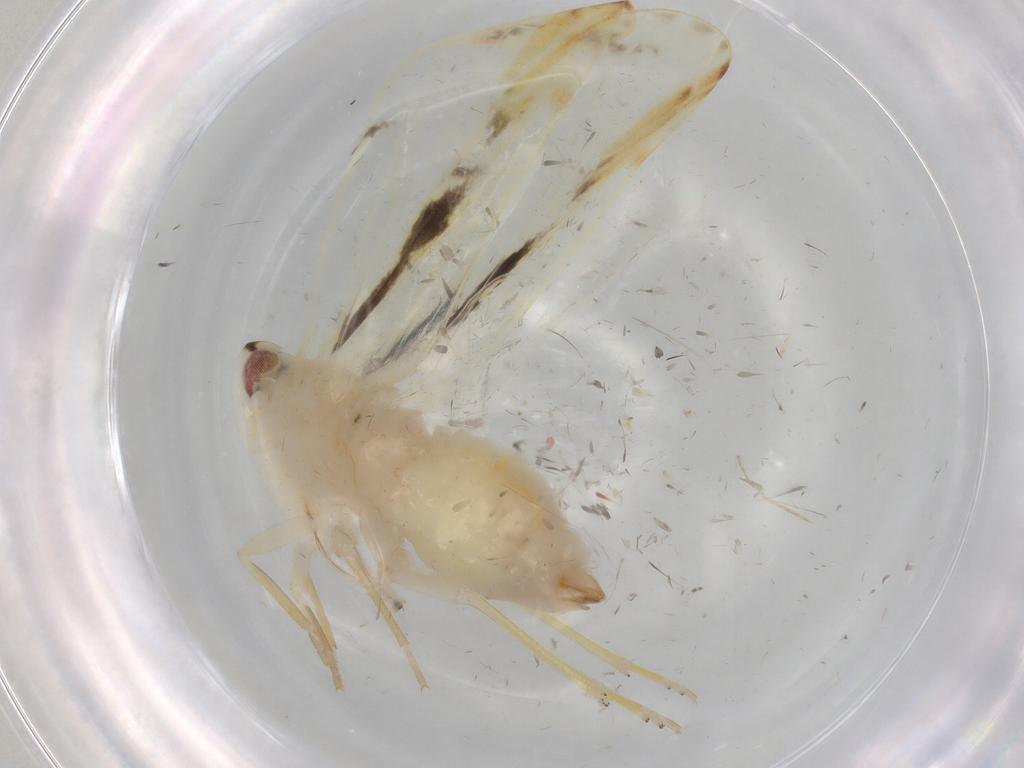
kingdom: Animalia
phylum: Arthropoda
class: Insecta
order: Hemiptera
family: Derbidae
